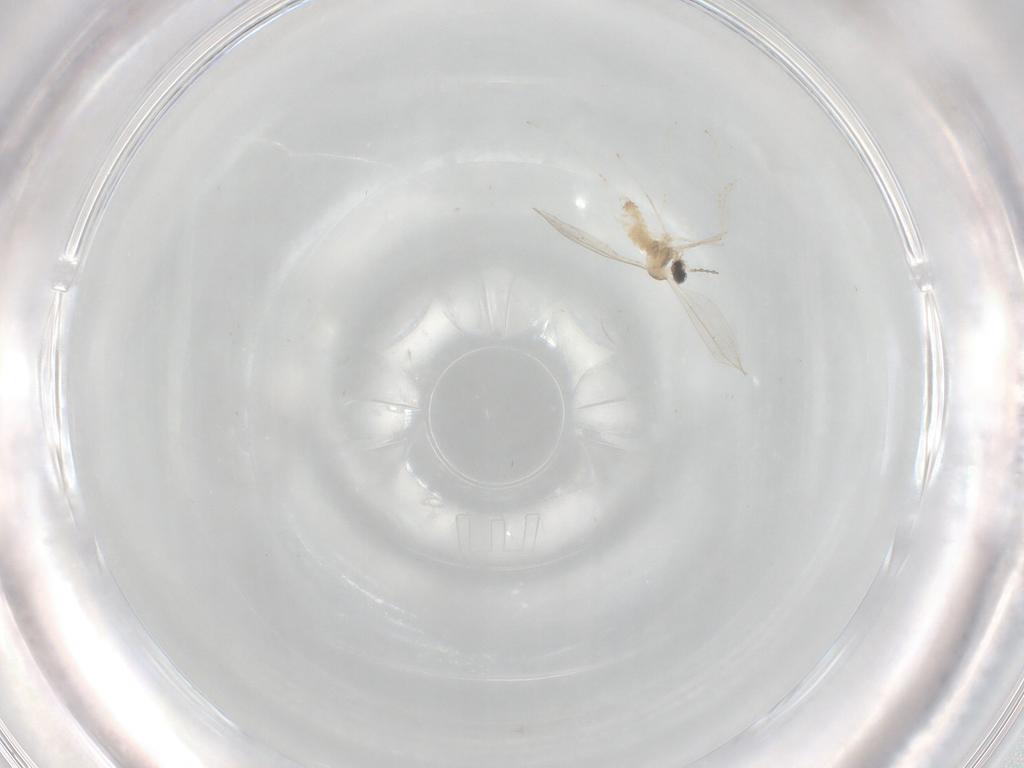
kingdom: Animalia
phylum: Arthropoda
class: Insecta
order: Diptera
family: Cecidomyiidae
